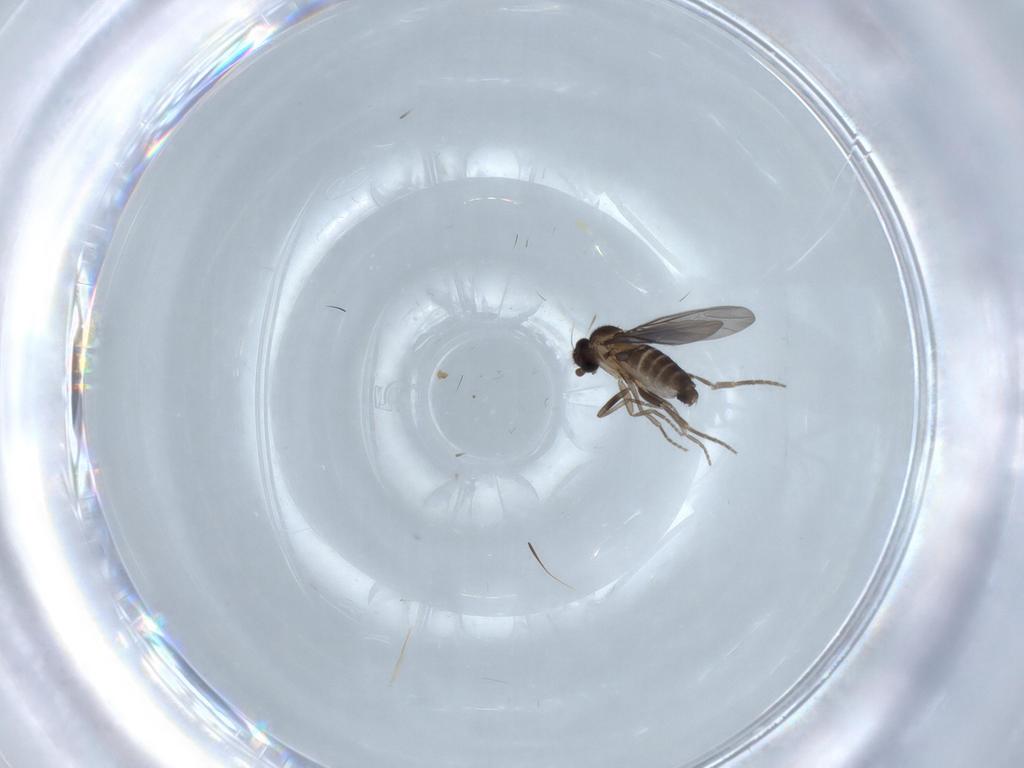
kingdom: Animalia
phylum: Arthropoda
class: Insecta
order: Diptera
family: Phoridae
